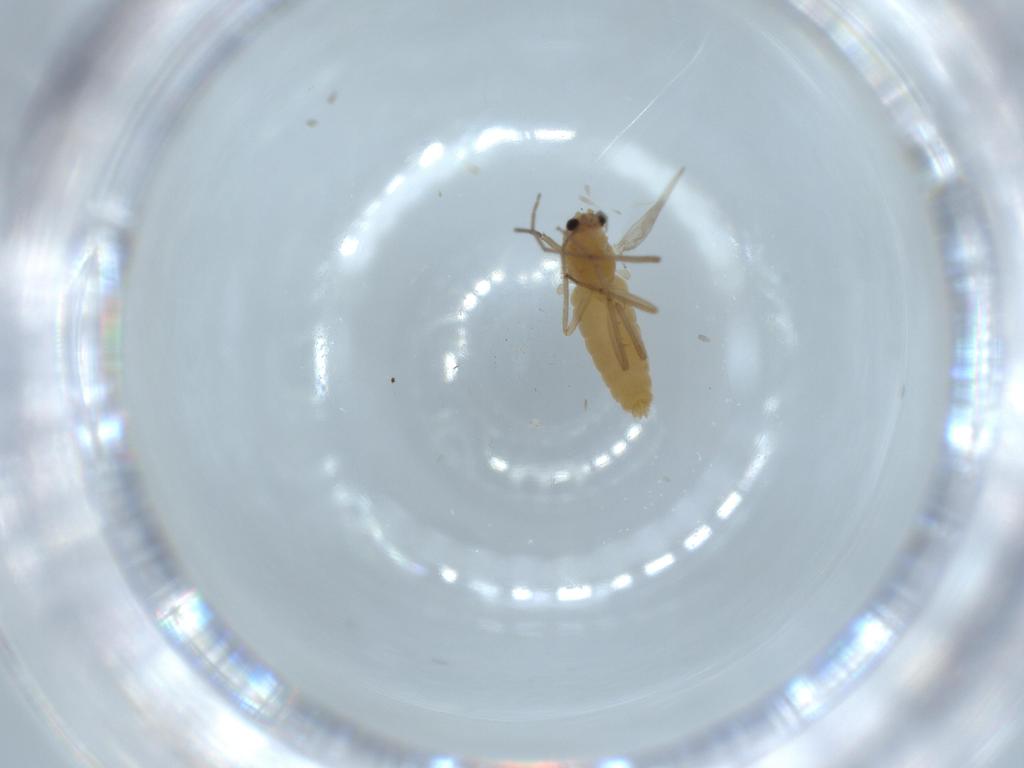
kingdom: Animalia
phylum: Arthropoda
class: Insecta
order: Diptera
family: Chironomidae
